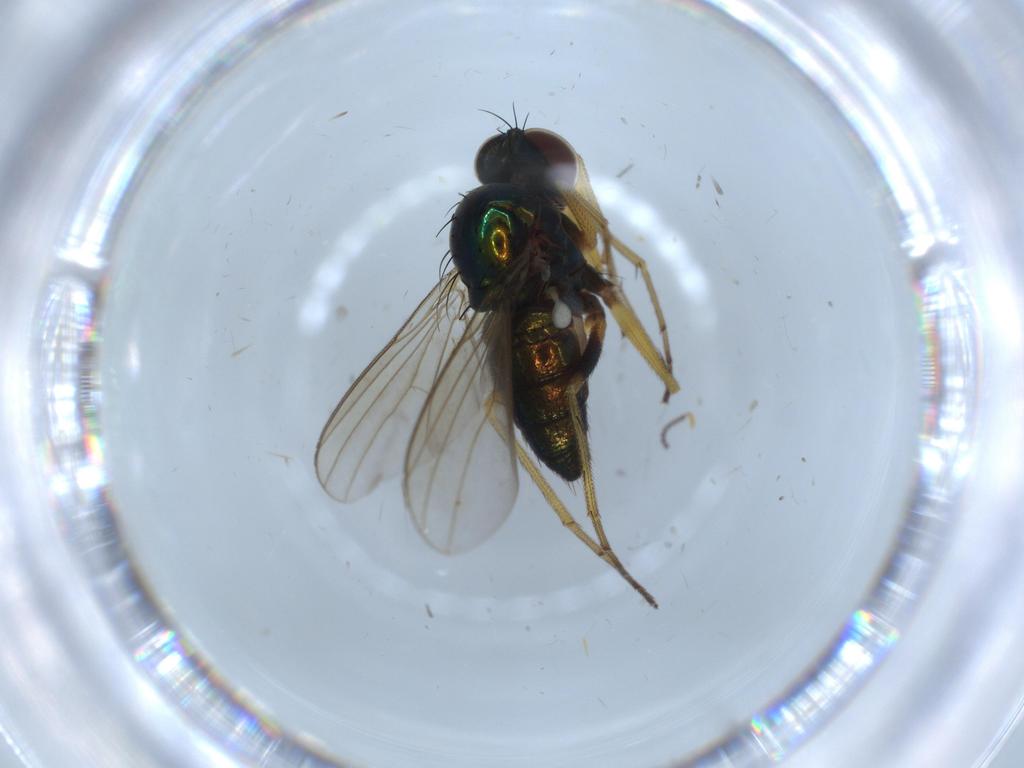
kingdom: Animalia
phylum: Arthropoda
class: Insecta
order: Diptera
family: Dolichopodidae
